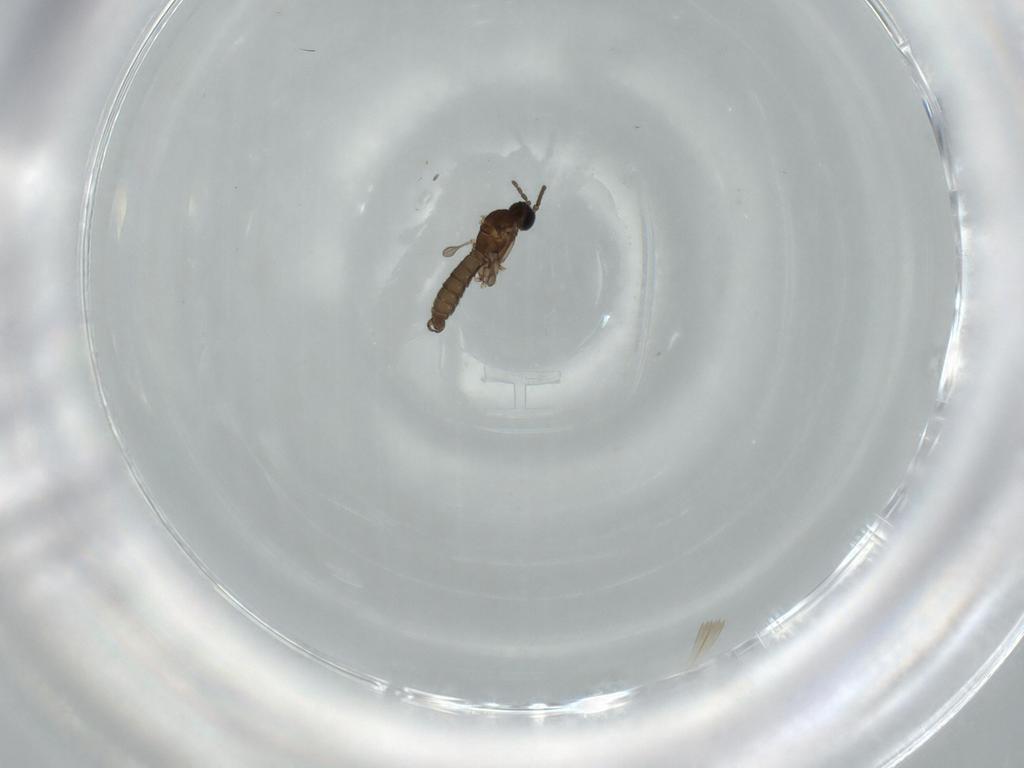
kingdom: Animalia
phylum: Arthropoda
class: Insecta
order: Diptera
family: Sciaridae
